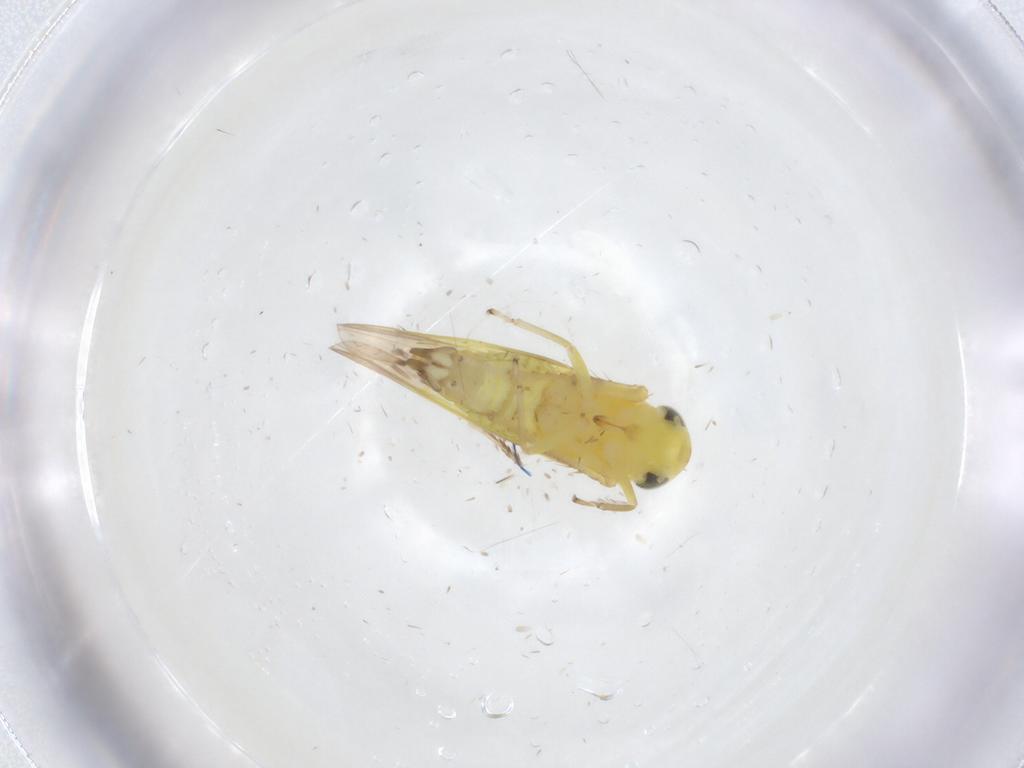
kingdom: Animalia
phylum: Arthropoda
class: Insecta
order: Hemiptera
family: Cicadellidae
